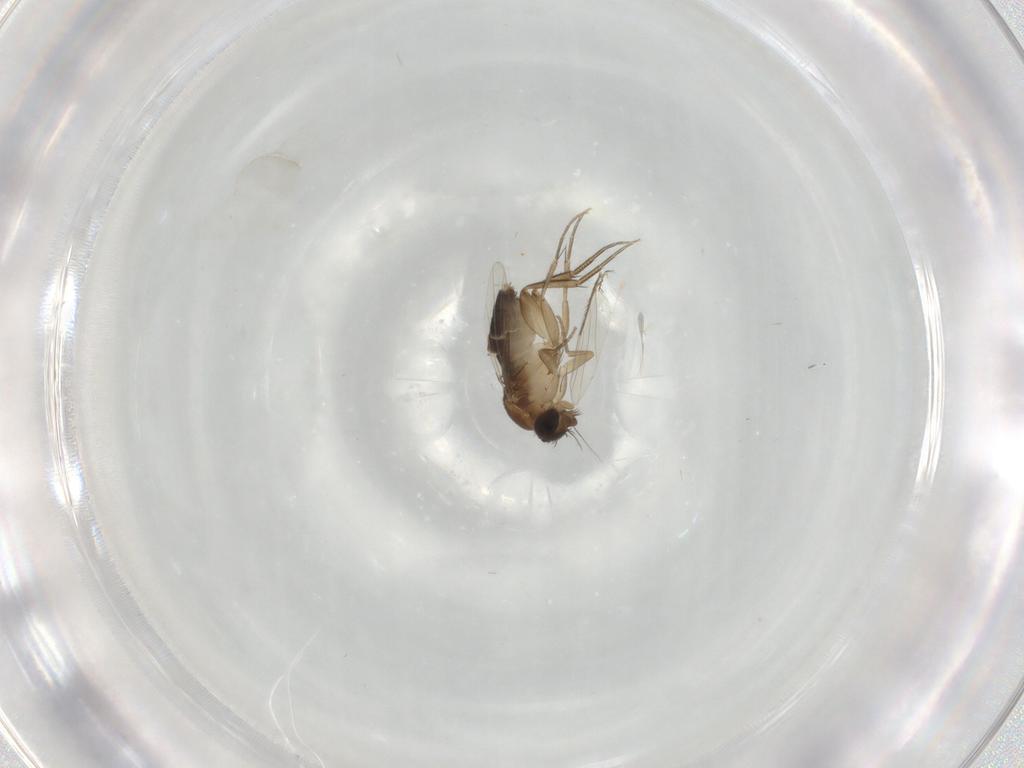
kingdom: Animalia
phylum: Arthropoda
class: Insecta
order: Diptera
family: Phoridae
